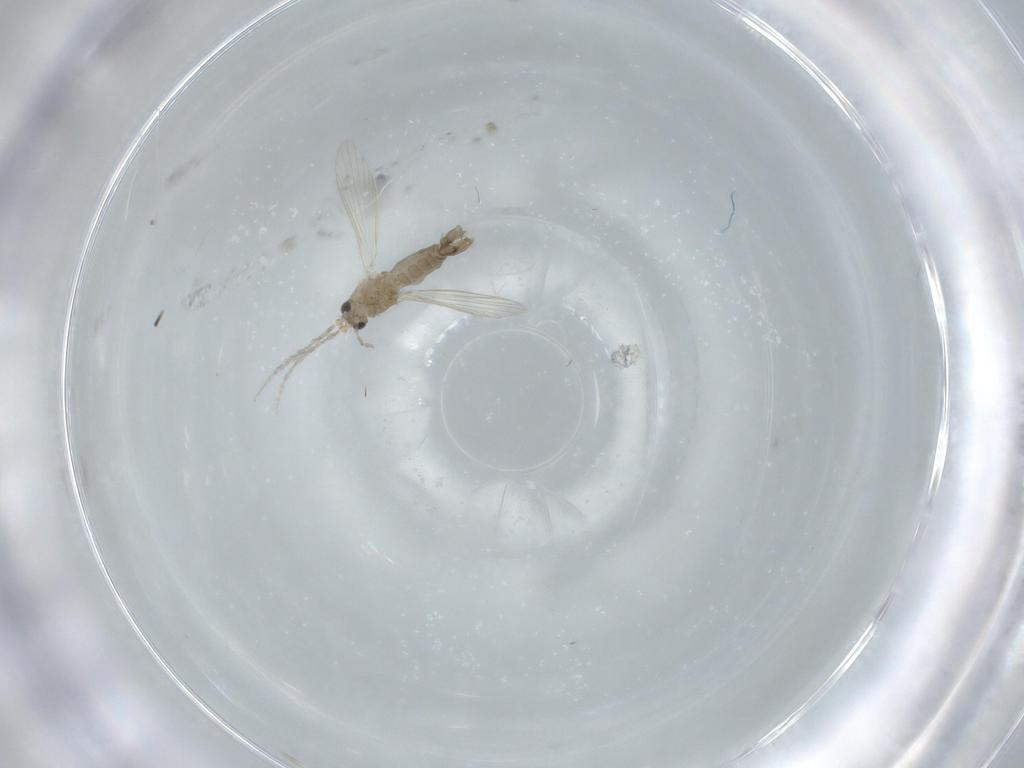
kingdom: Animalia
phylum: Arthropoda
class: Insecta
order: Diptera
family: Psychodidae
